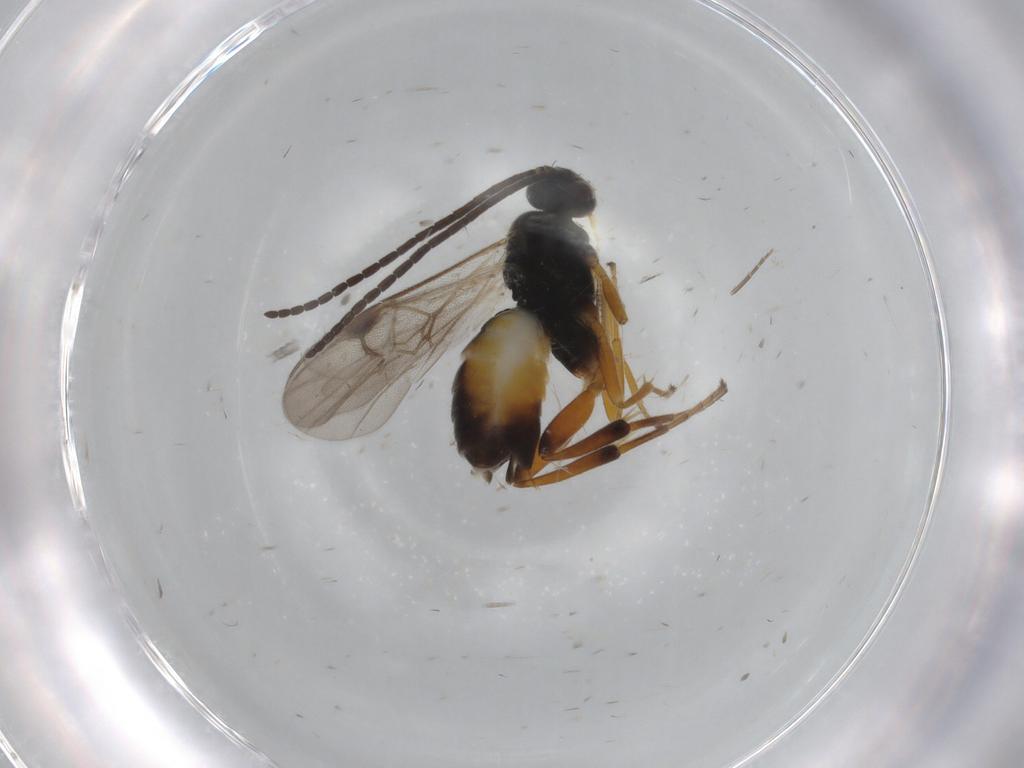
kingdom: Animalia
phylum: Arthropoda
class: Insecta
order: Hymenoptera
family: Braconidae
